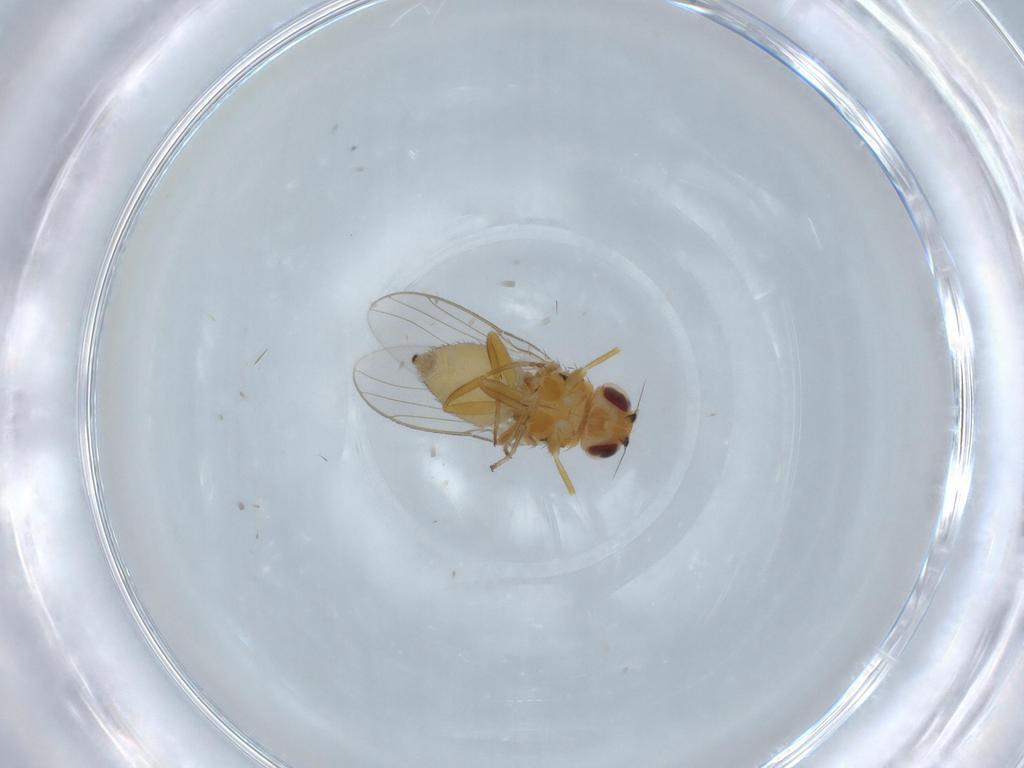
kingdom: Animalia
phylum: Arthropoda
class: Insecta
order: Diptera
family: Chloropidae
